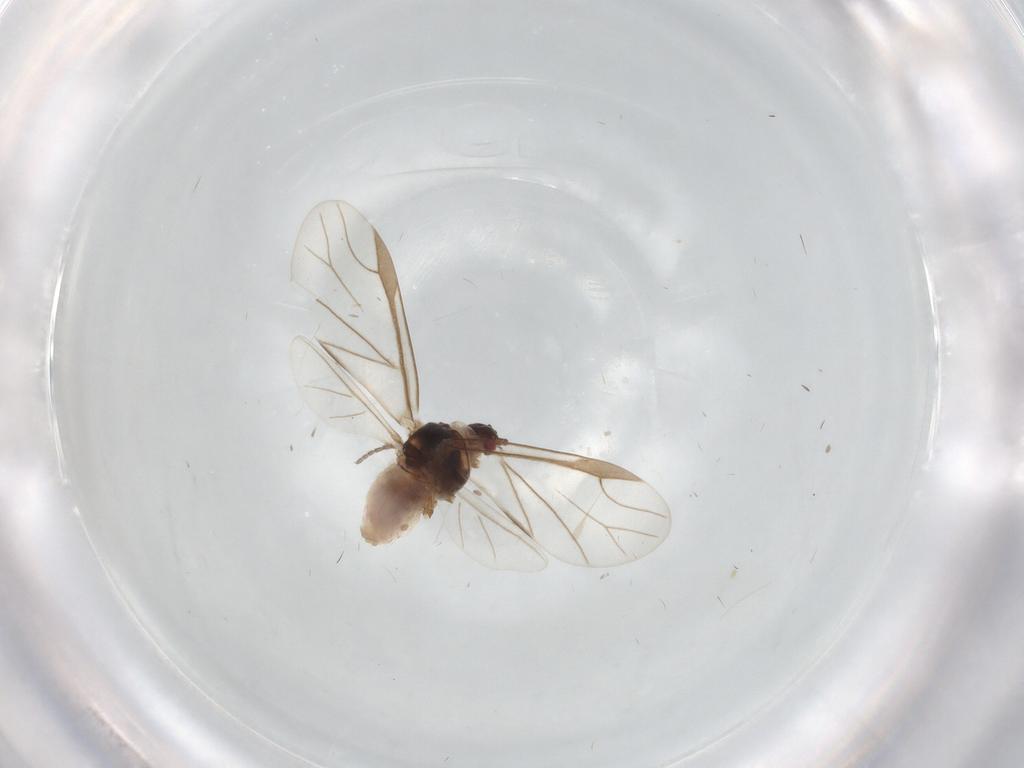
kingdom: Animalia
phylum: Arthropoda
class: Insecta
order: Hemiptera
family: Aphididae
